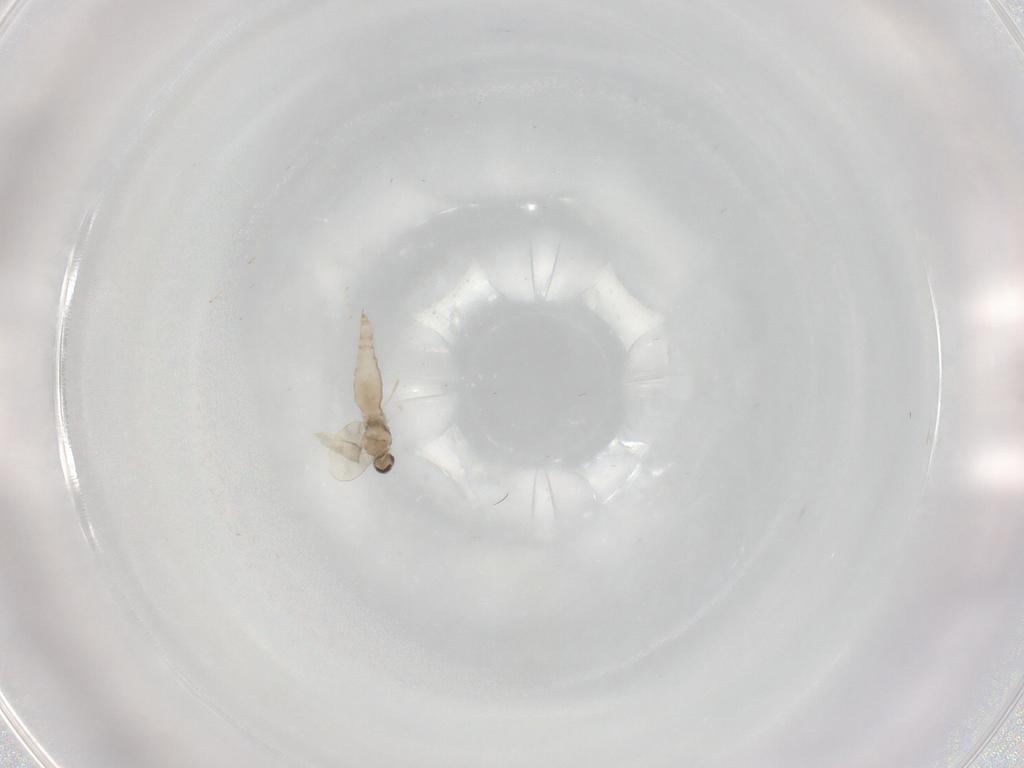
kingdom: Animalia
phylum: Arthropoda
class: Insecta
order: Diptera
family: Cecidomyiidae
